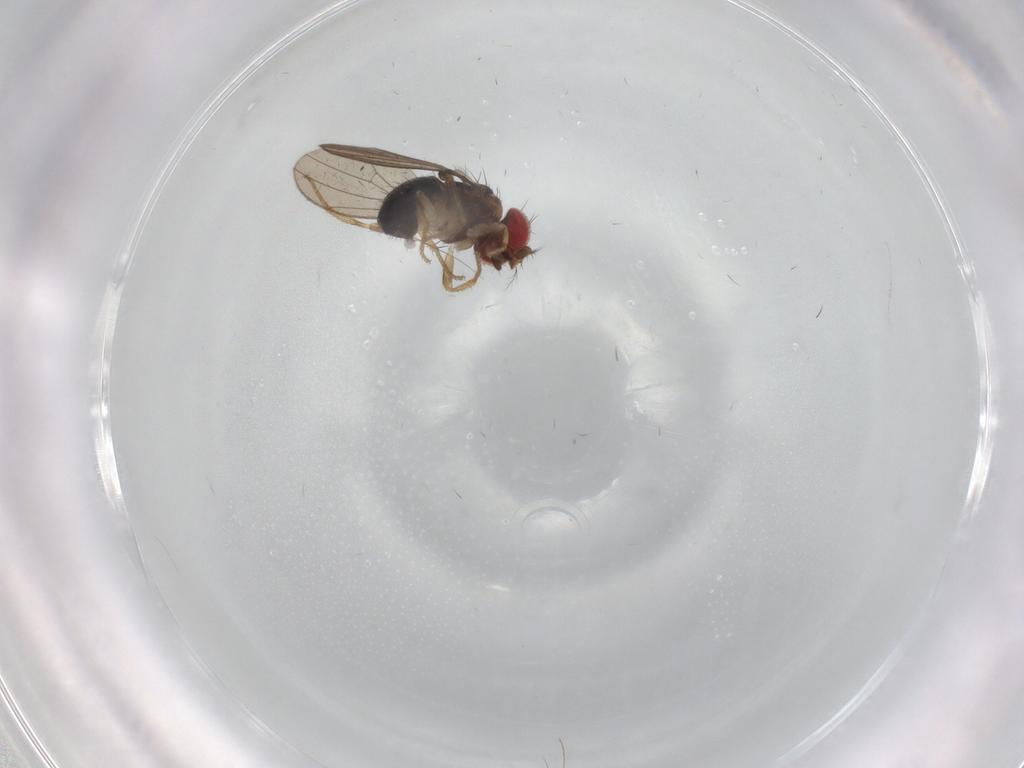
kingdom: Animalia
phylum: Arthropoda
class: Insecta
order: Diptera
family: Drosophilidae
